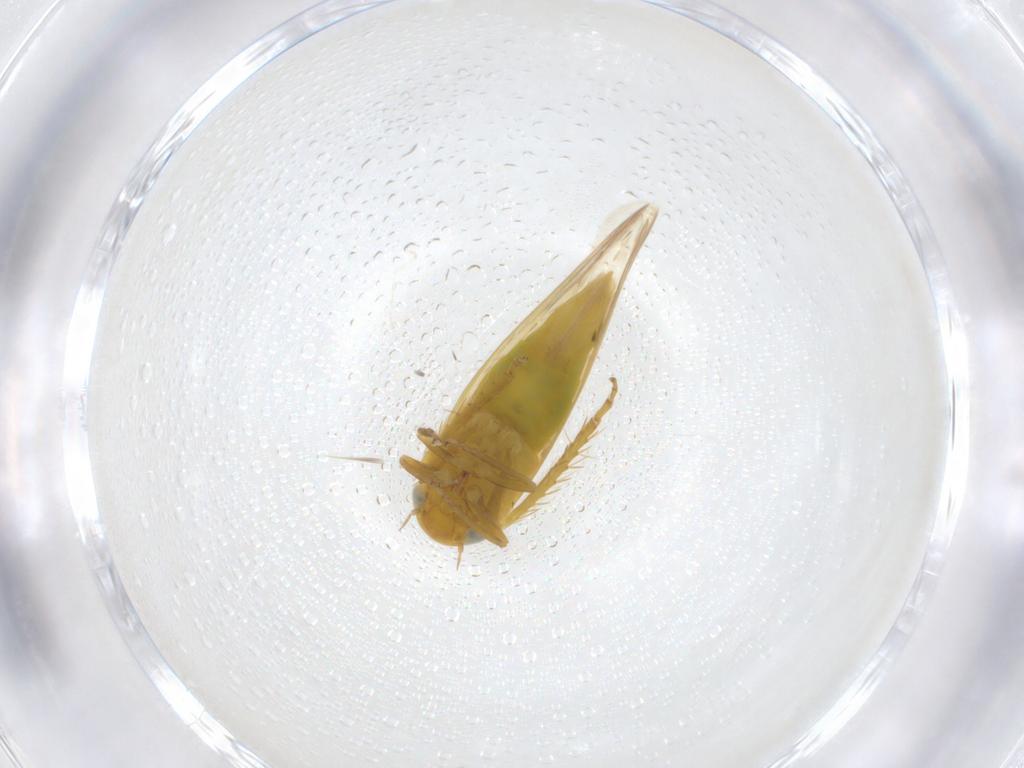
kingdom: Animalia
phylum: Arthropoda
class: Insecta
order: Hemiptera
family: Cicadellidae
